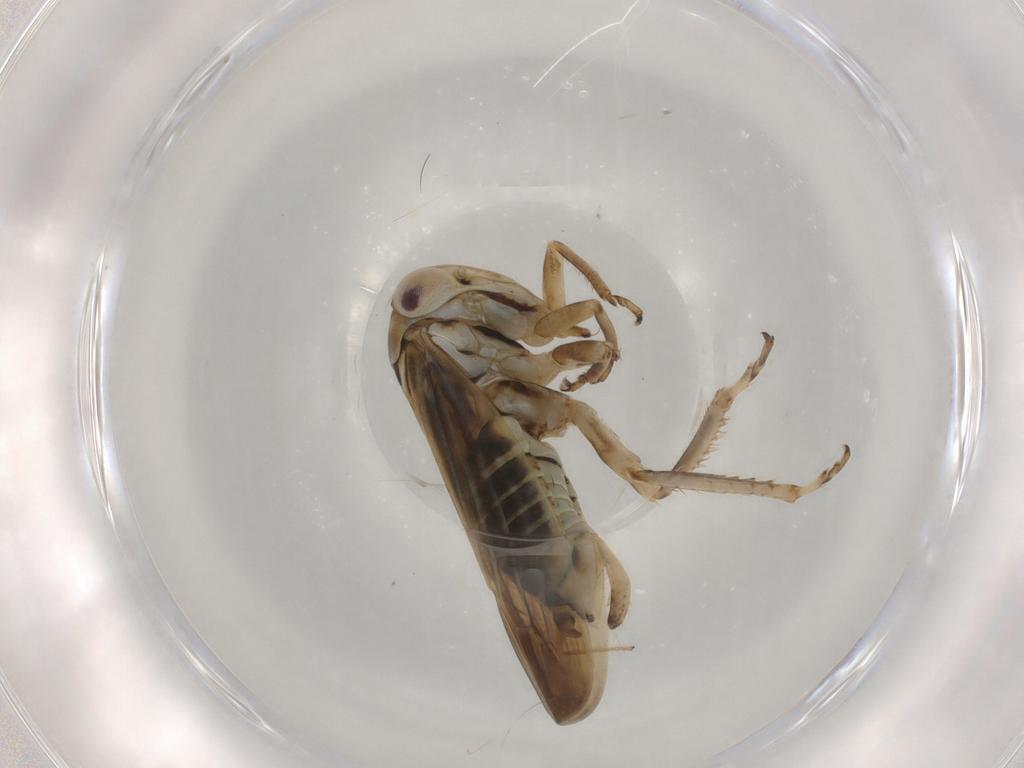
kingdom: Animalia
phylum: Arthropoda
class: Insecta
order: Hemiptera
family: Cicadellidae
